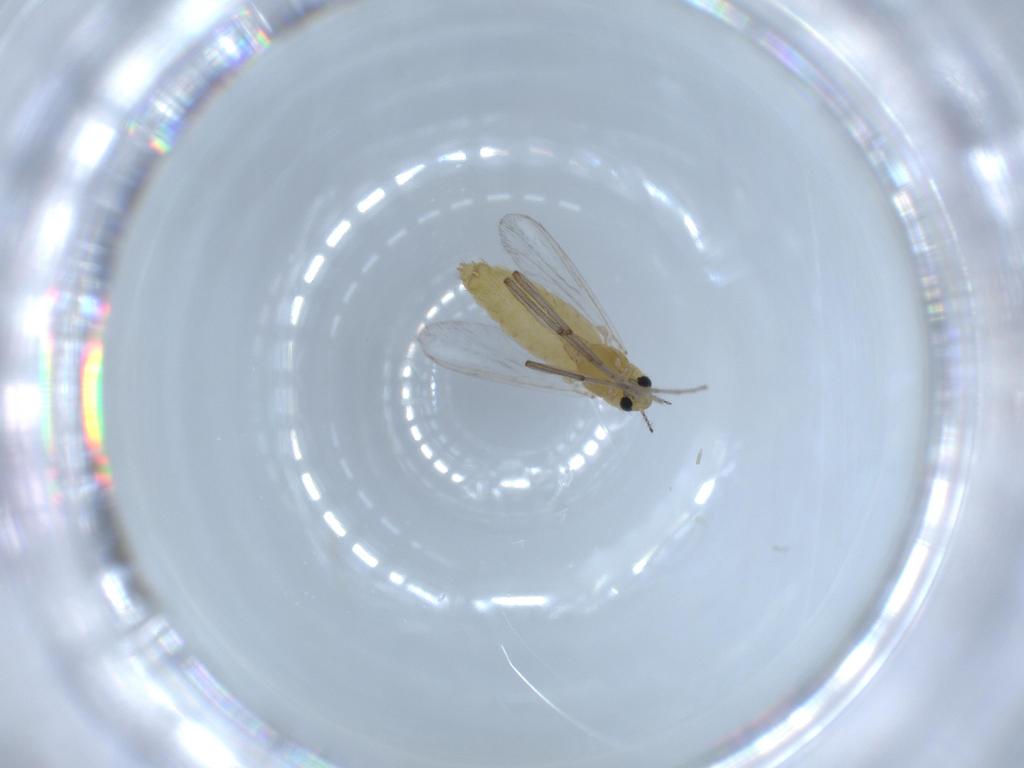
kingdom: Animalia
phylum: Arthropoda
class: Insecta
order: Diptera
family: Chironomidae
